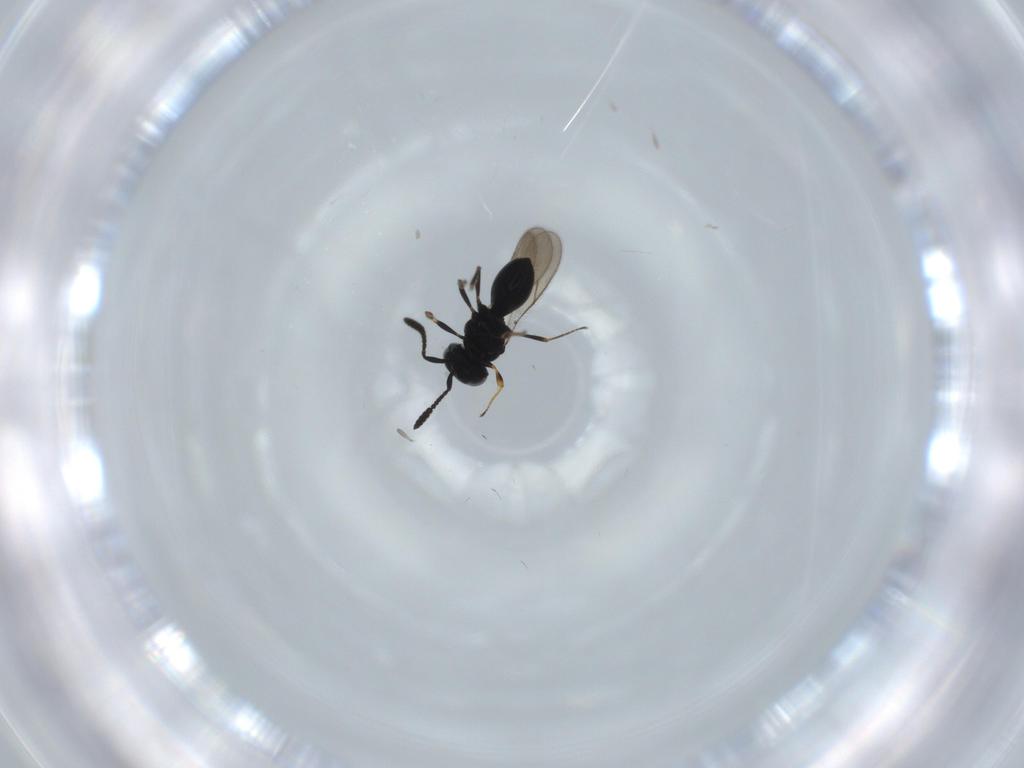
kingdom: Animalia
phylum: Arthropoda
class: Insecta
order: Hymenoptera
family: Scelionidae
